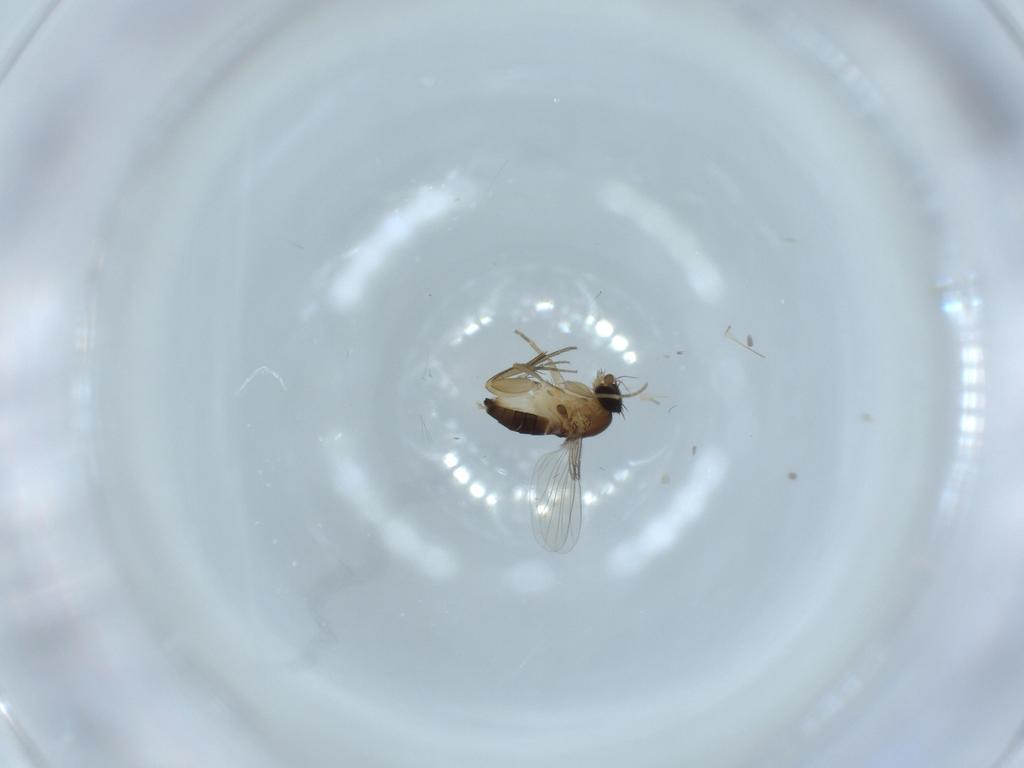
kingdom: Animalia
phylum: Arthropoda
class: Insecta
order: Diptera
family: Phoridae
